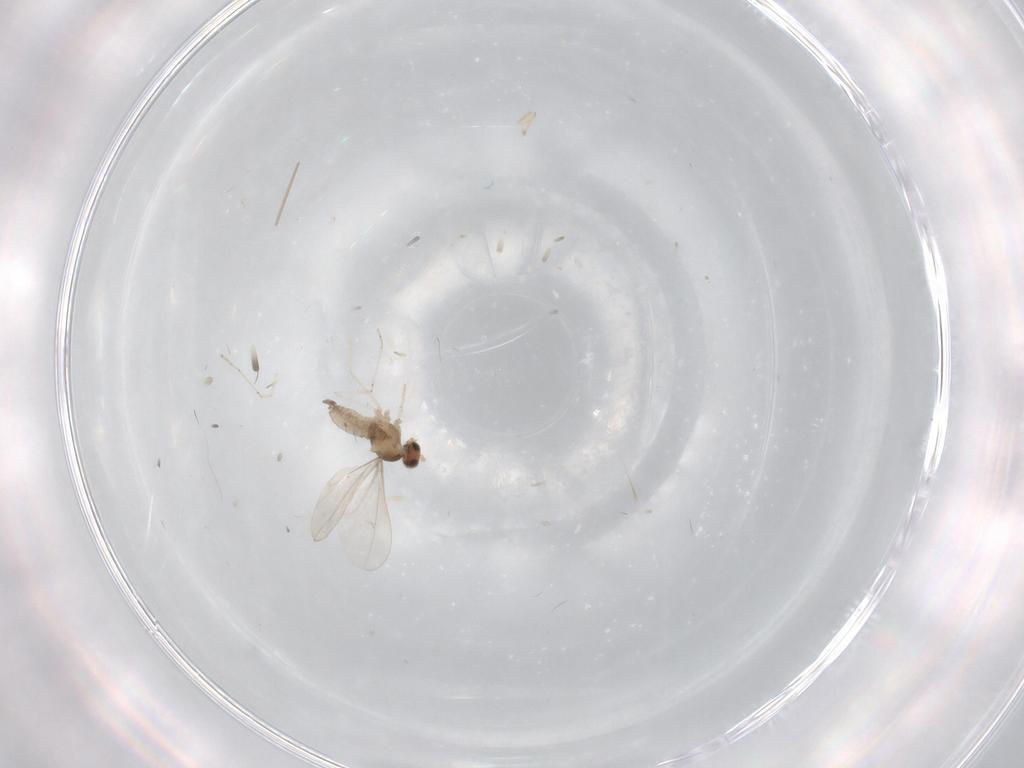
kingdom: Animalia
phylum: Arthropoda
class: Insecta
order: Diptera
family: Cecidomyiidae
